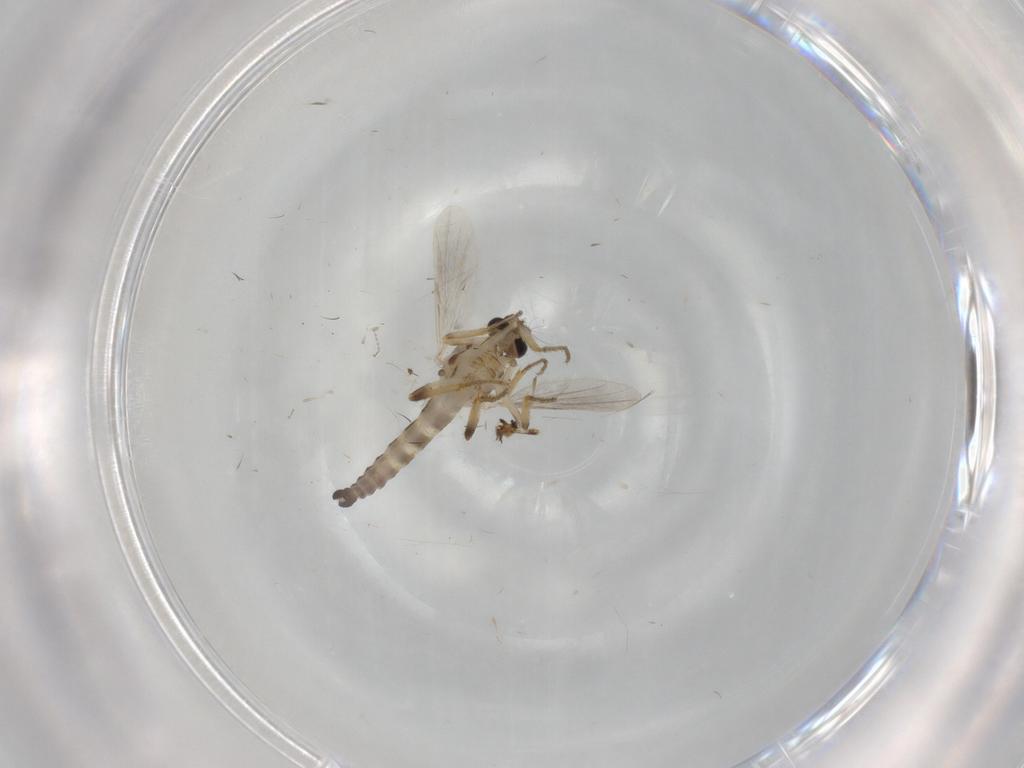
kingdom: Animalia
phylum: Arthropoda
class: Insecta
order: Diptera
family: Ceratopogonidae
